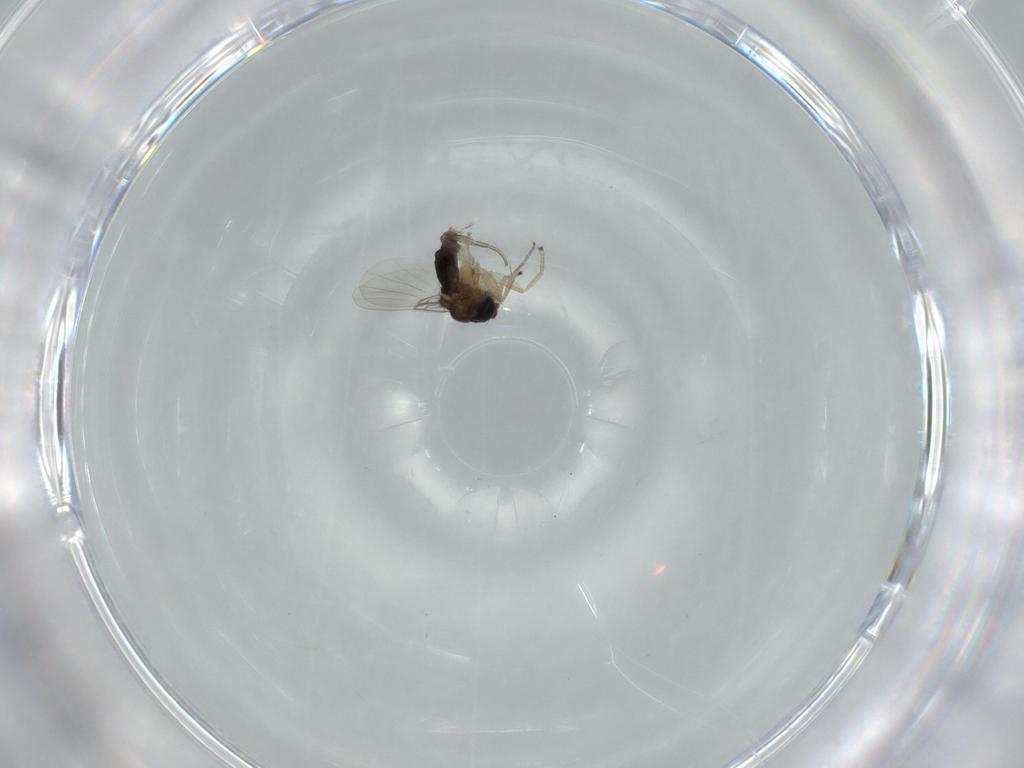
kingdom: Animalia
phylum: Arthropoda
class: Insecta
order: Diptera
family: Phoridae
